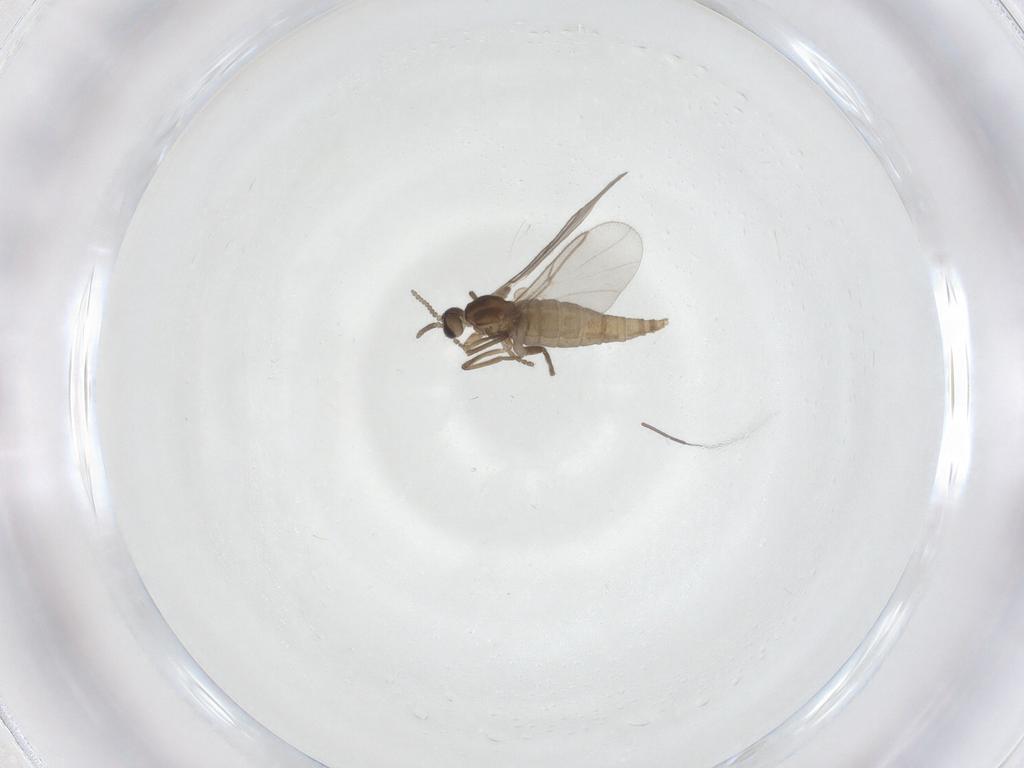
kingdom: Animalia
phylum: Arthropoda
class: Insecta
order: Diptera
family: Cecidomyiidae
